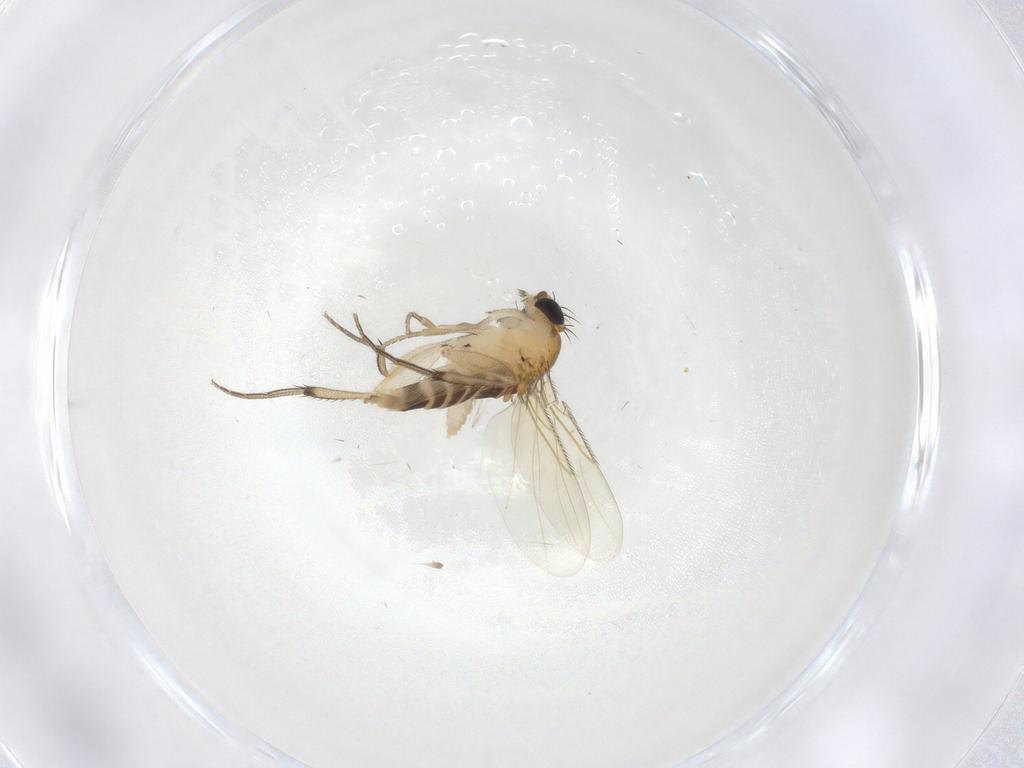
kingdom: Animalia
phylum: Arthropoda
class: Insecta
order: Diptera
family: Phoridae
